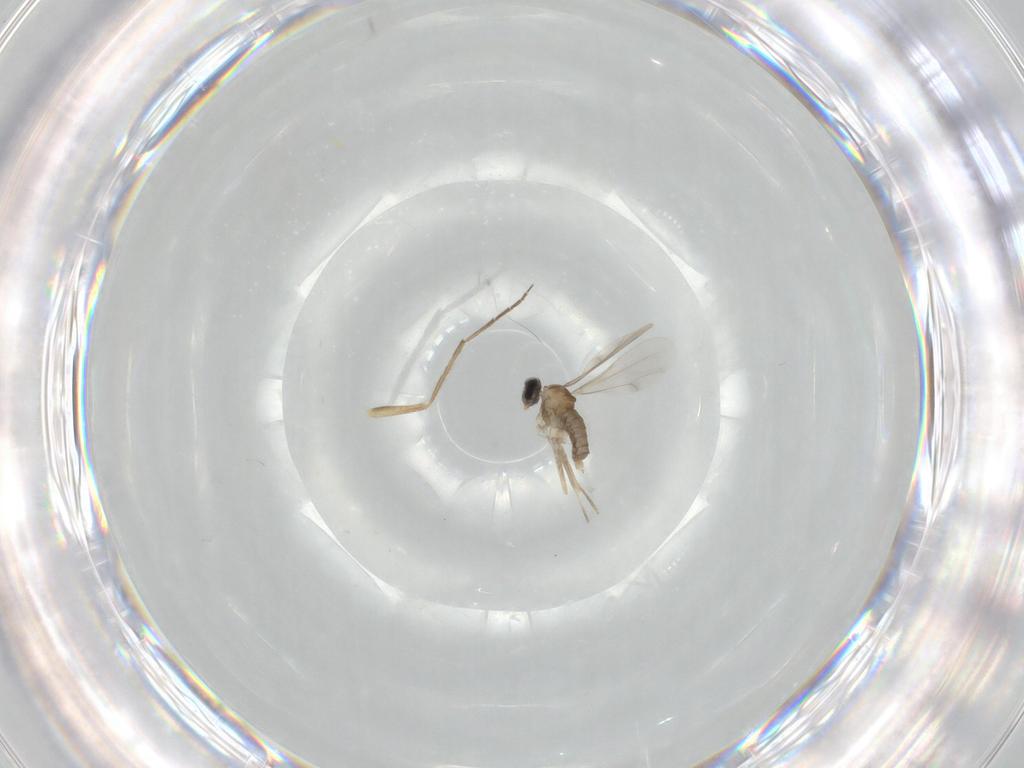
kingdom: Animalia
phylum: Arthropoda
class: Insecta
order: Diptera
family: Cecidomyiidae
